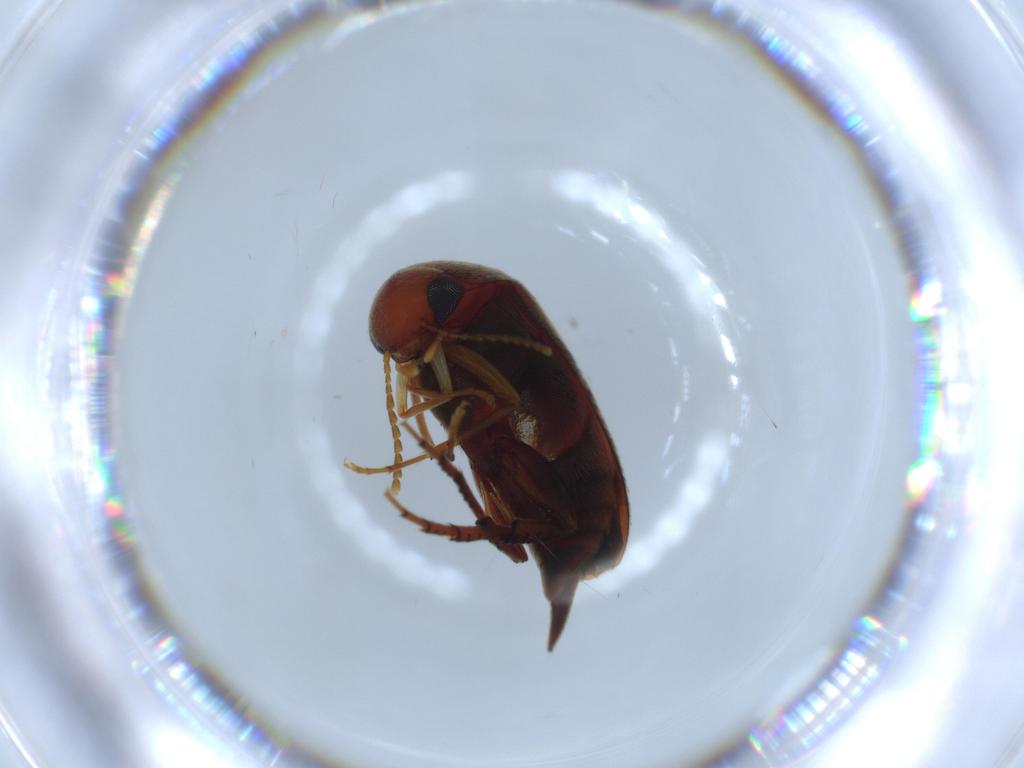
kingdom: Animalia
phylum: Arthropoda
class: Insecta
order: Coleoptera
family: Aderidae
